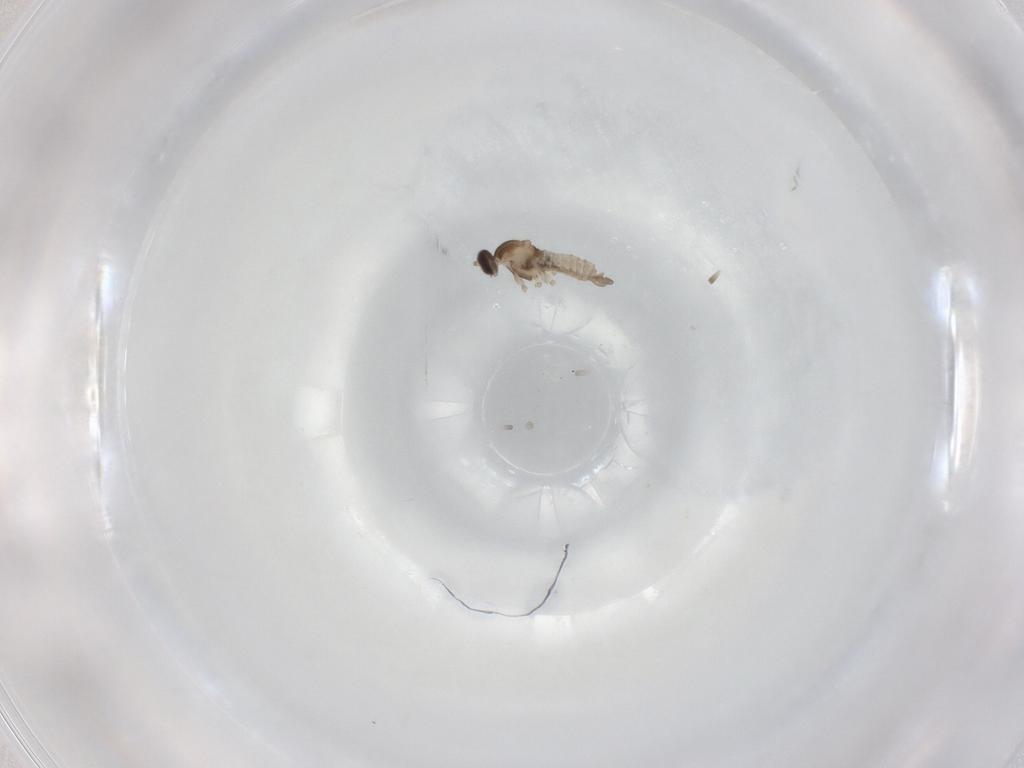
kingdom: Animalia
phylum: Arthropoda
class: Insecta
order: Diptera
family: Cecidomyiidae
